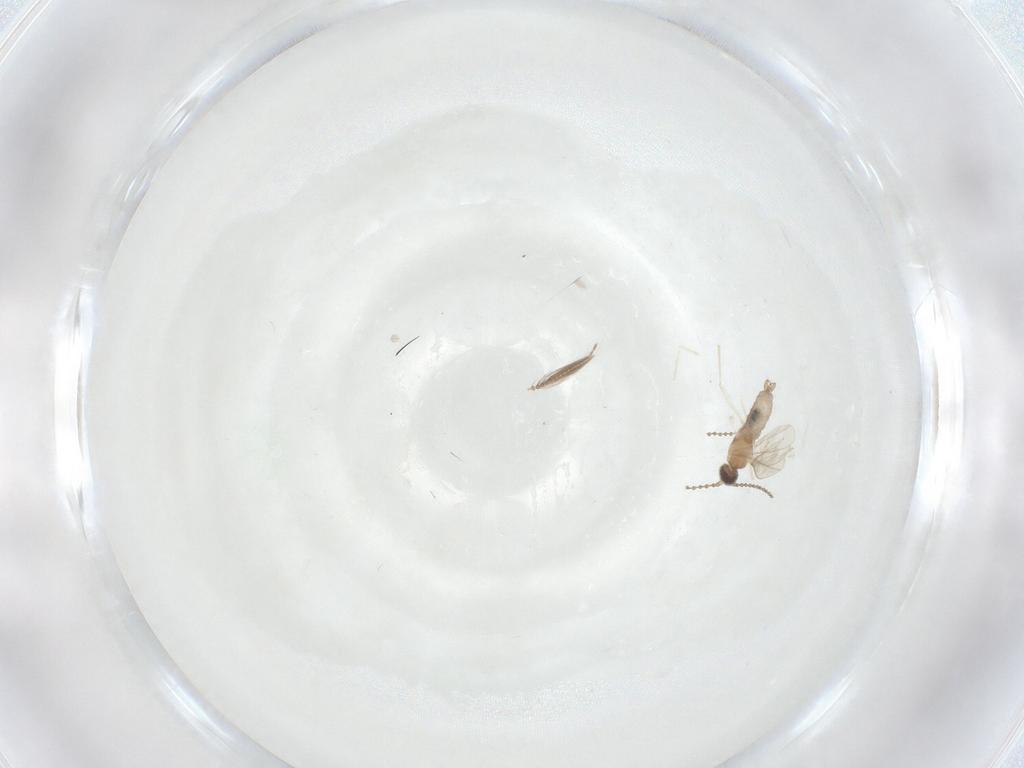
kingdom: Animalia
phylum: Arthropoda
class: Insecta
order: Diptera
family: Cecidomyiidae
